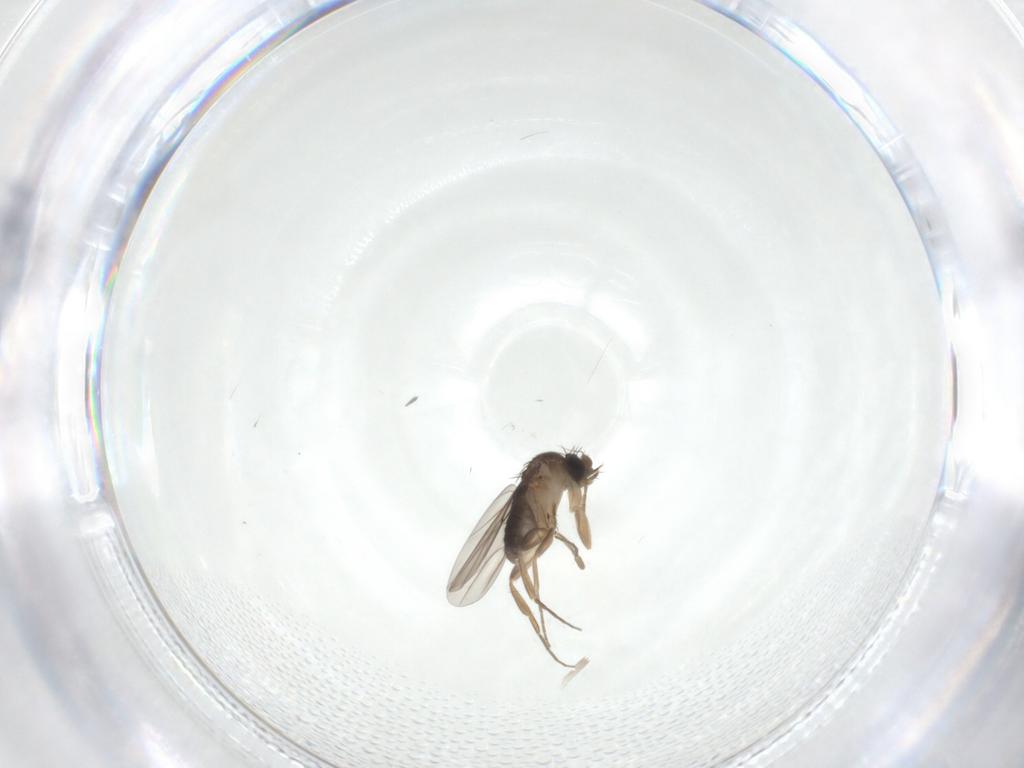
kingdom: Animalia
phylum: Arthropoda
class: Insecta
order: Diptera
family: Phoridae
